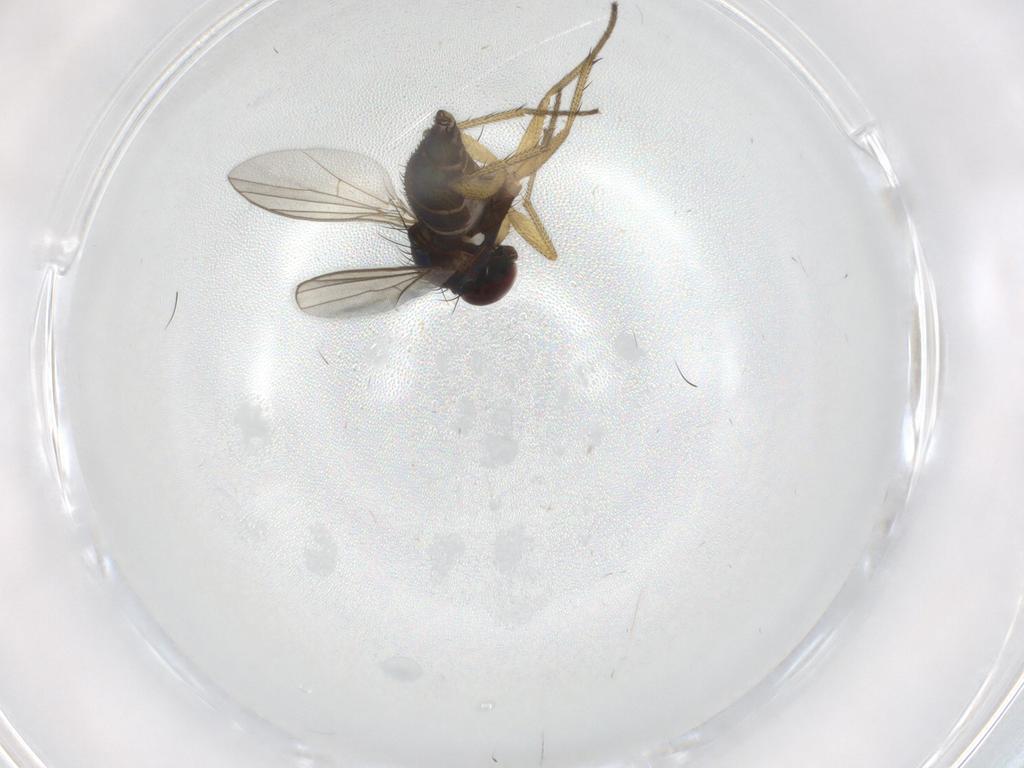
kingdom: Animalia
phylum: Arthropoda
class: Insecta
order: Diptera
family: Dolichopodidae
